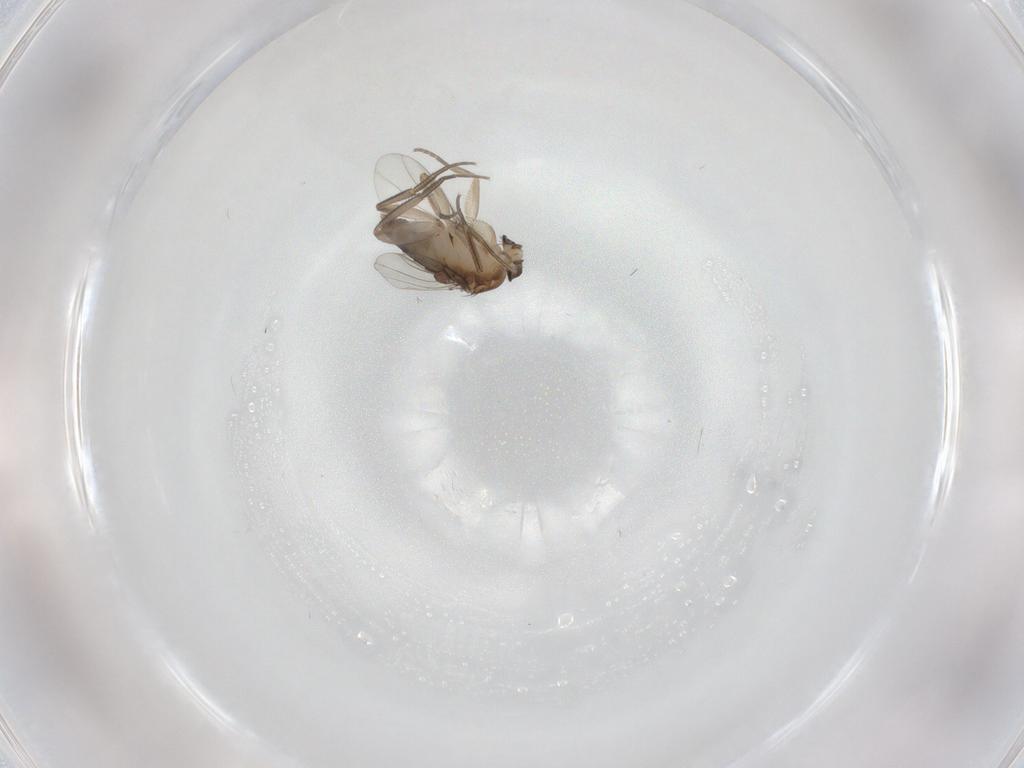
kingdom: Animalia
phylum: Arthropoda
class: Insecta
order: Diptera
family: Phoridae
